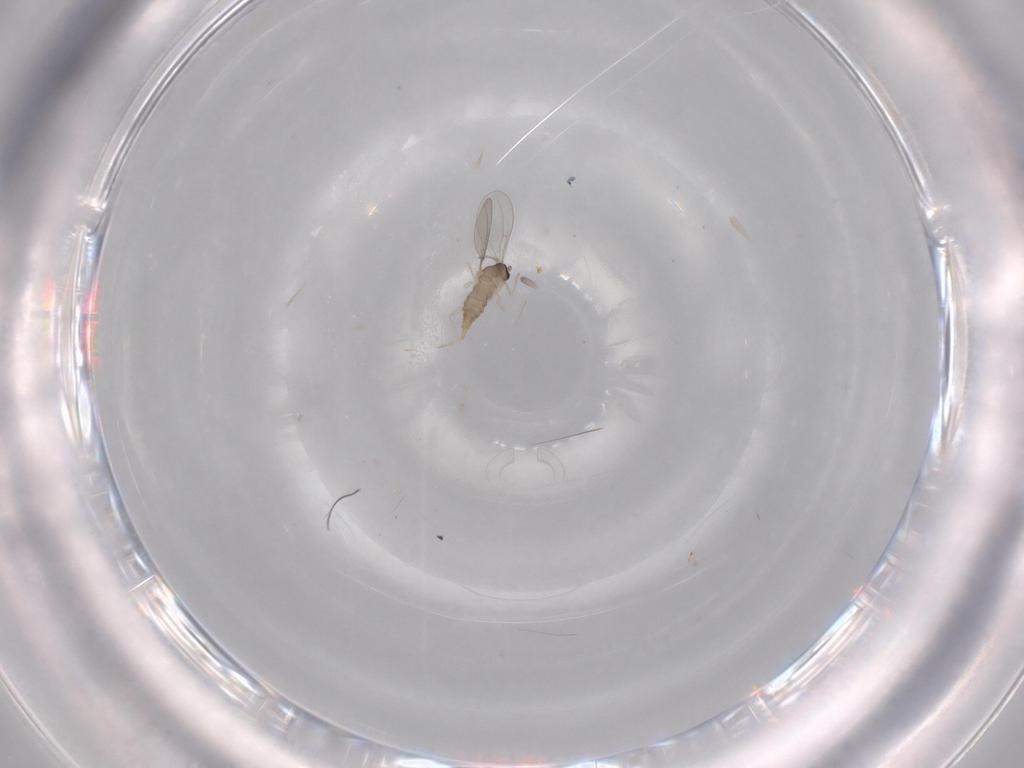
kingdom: Animalia
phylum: Arthropoda
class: Insecta
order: Diptera
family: Cecidomyiidae
